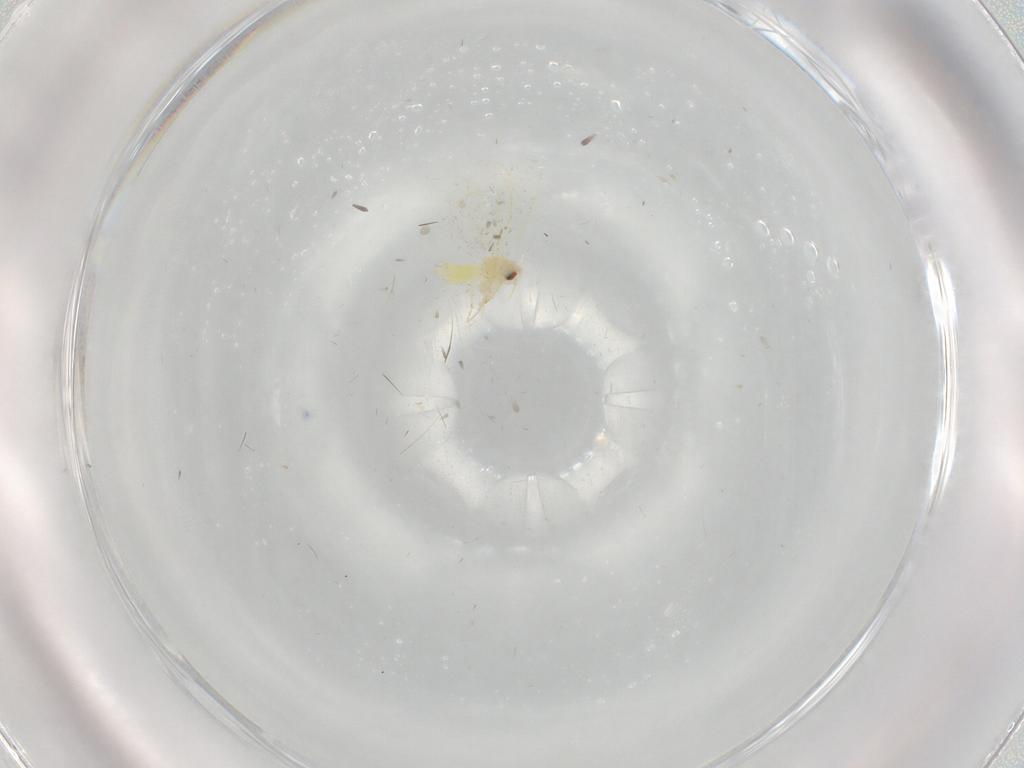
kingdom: Animalia
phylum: Arthropoda
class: Insecta
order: Hemiptera
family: Aleyrodidae
